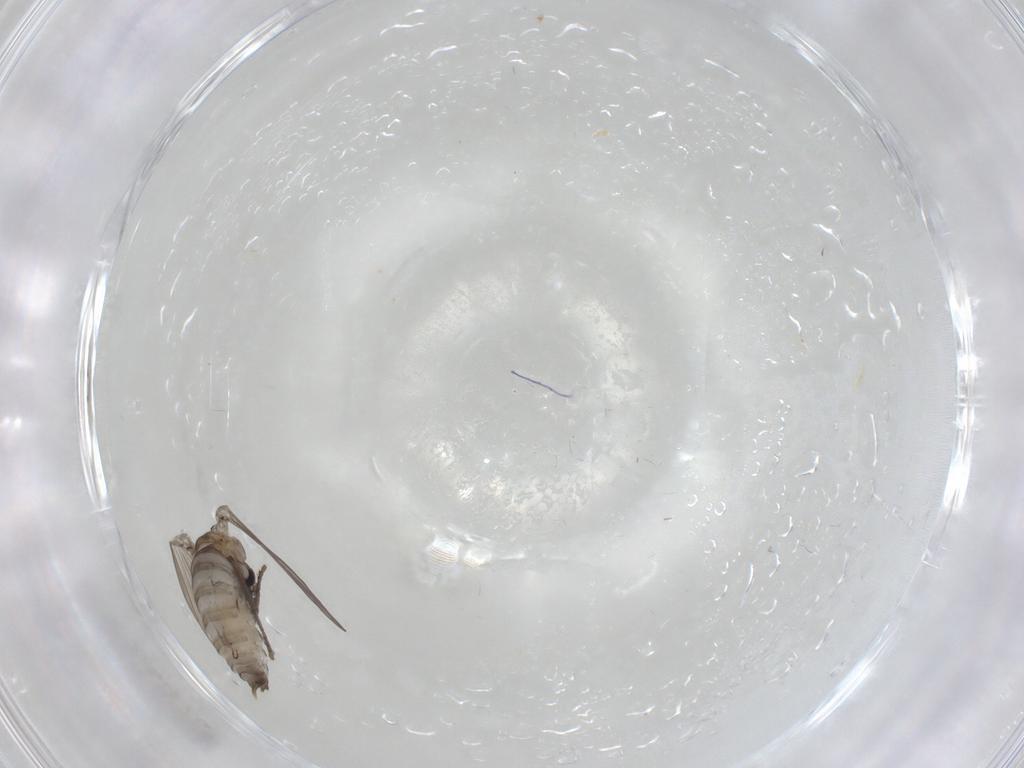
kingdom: Animalia
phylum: Arthropoda
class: Insecta
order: Diptera
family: Psychodidae
